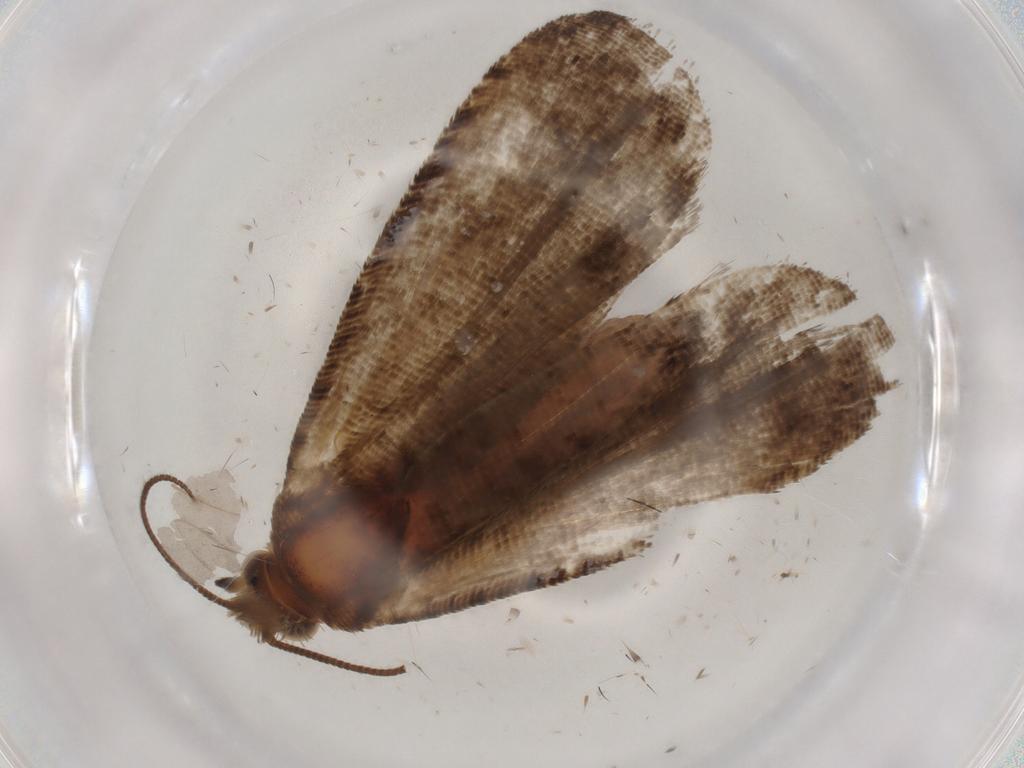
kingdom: Animalia
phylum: Arthropoda
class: Insecta
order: Lepidoptera
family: Tortricidae
